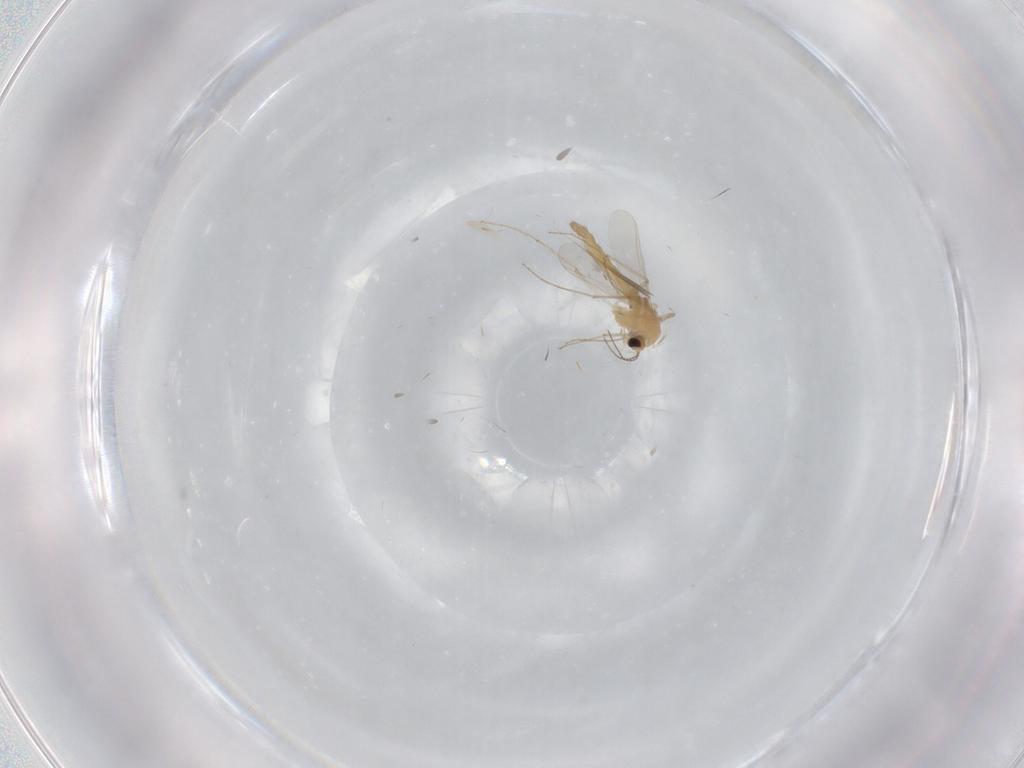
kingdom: Animalia
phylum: Arthropoda
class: Insecta
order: Diptera
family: Chironomidae
